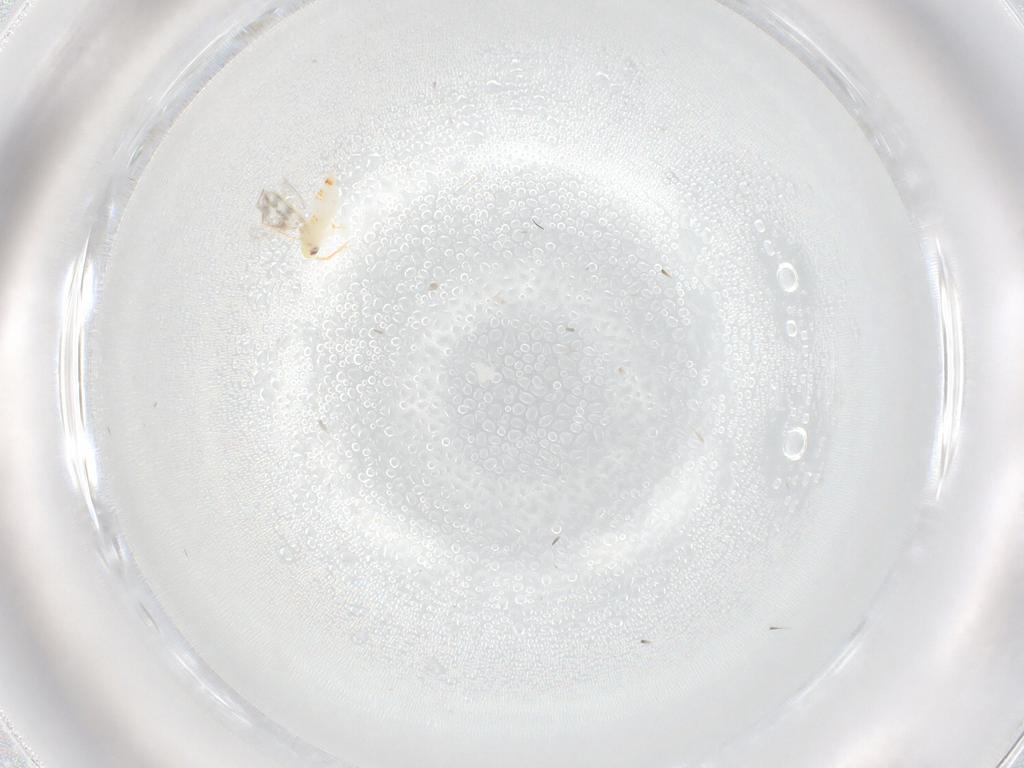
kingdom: Animalia
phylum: Arthropoda
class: Insecta
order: Hemiptera
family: Aleyrodidae
